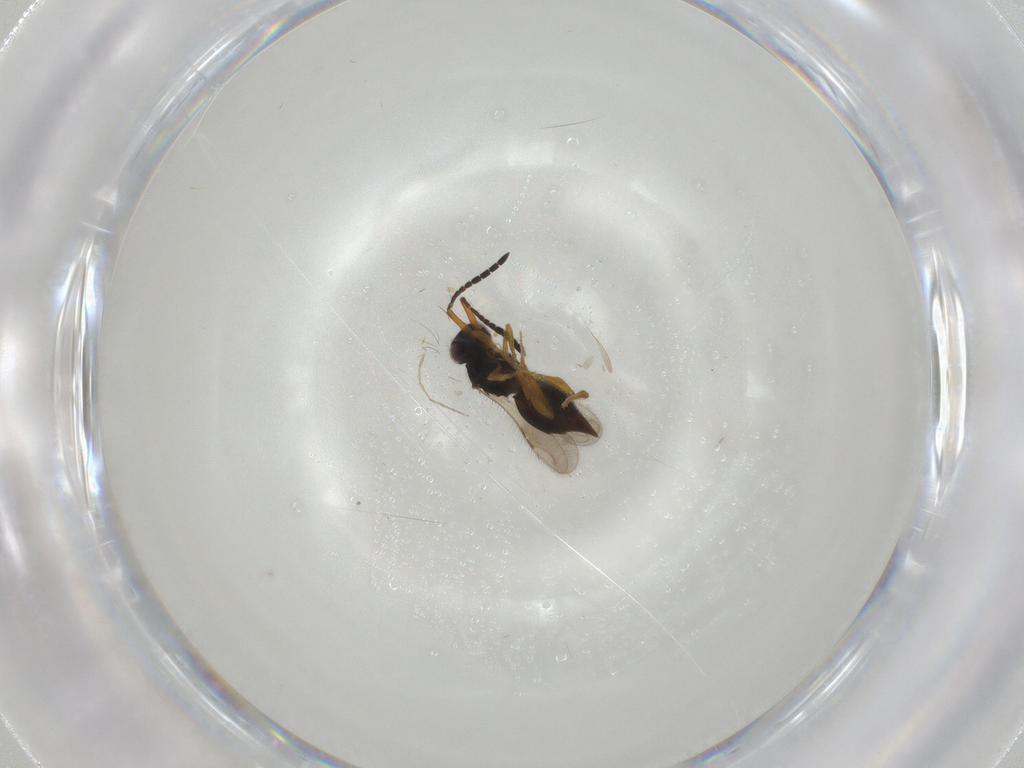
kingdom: Animalia
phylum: Arthropoda
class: Insecta
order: Hymenoptera
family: Ceraphronidae
